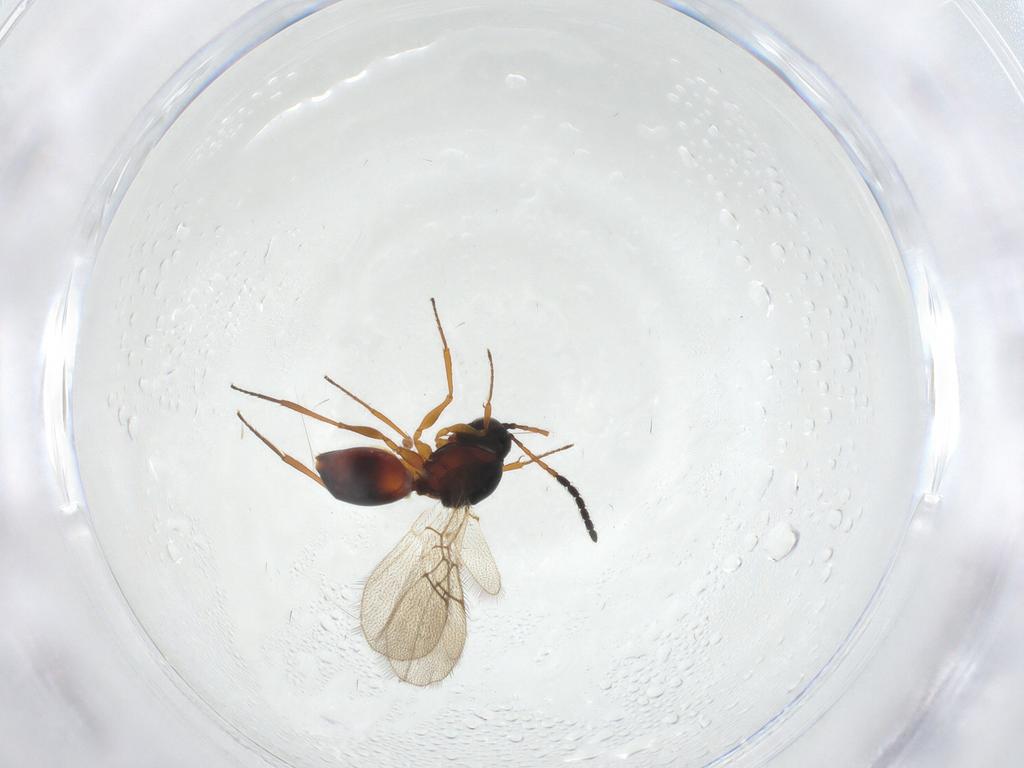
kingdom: Animalia
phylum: Arthropoda
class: Insecta
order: Hymenoptera
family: Figitidae
